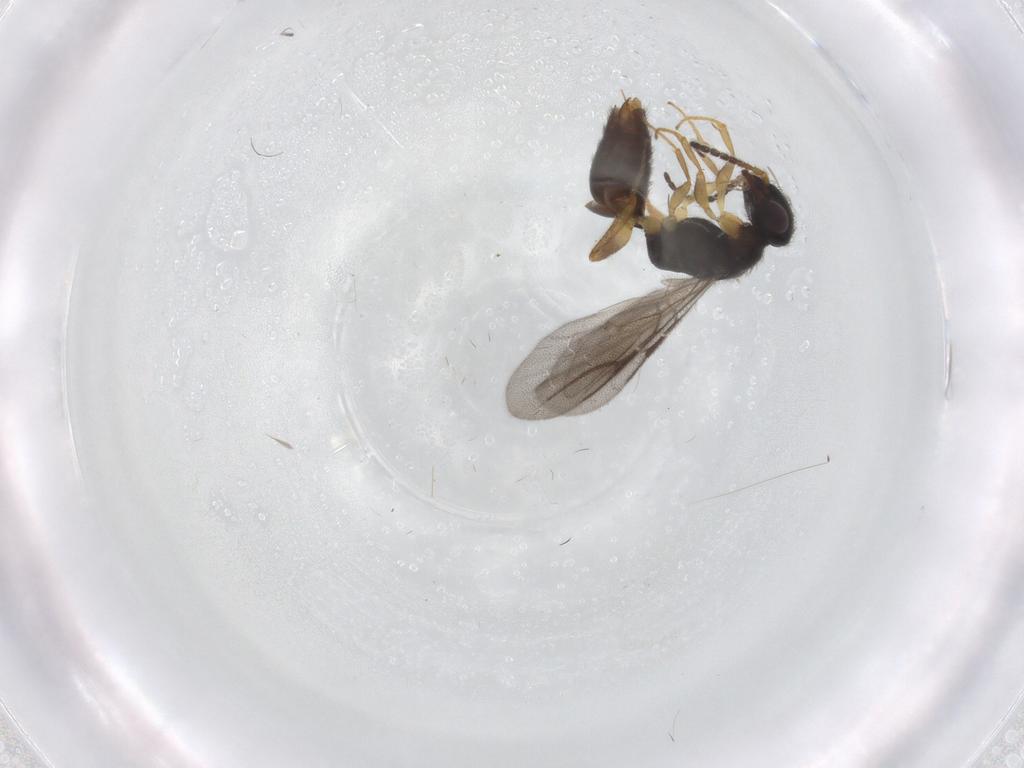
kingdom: Animalia
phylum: Arthropoda
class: Insecta
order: Hymenoptera
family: Bethylidae
